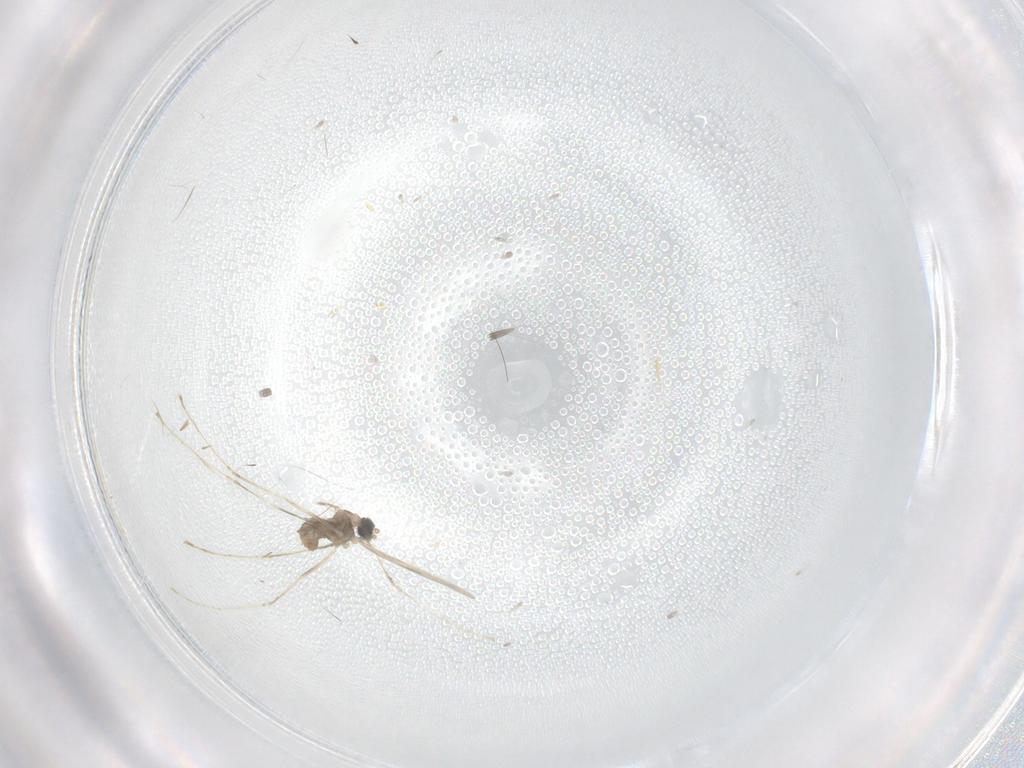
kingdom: Animalia
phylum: Arthropoda
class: Insecta
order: Diptera
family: Cecidomyiidae
